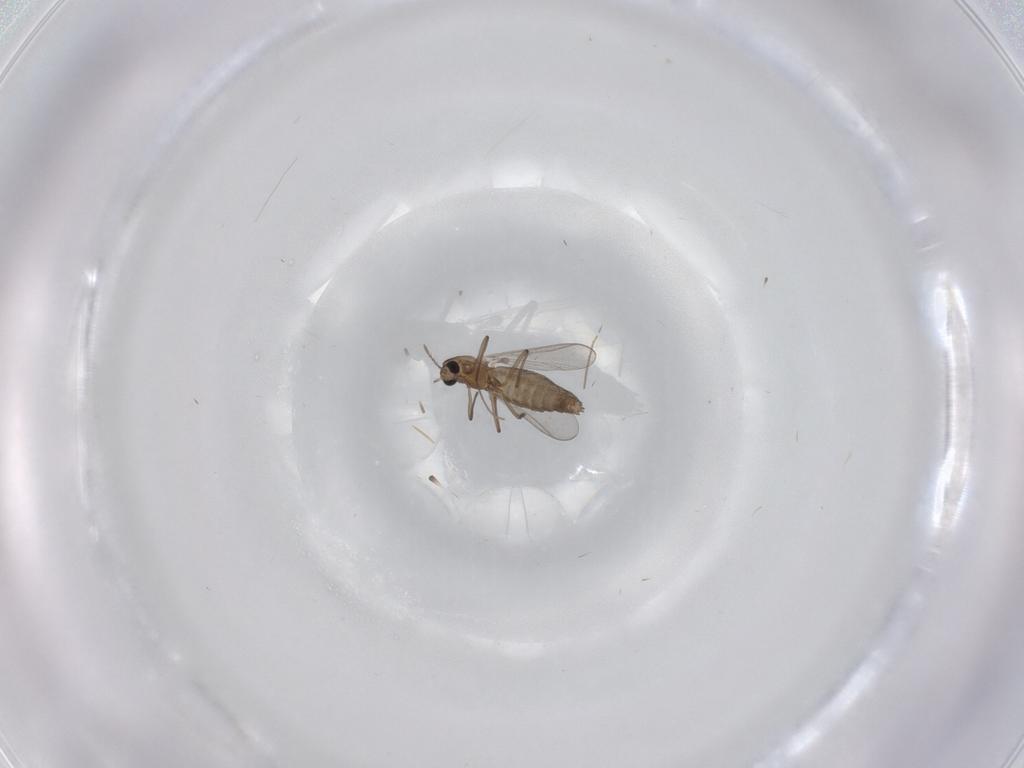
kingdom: Animalia
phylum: Arthropoda
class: Insecta
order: Diptera
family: Chironomidae
